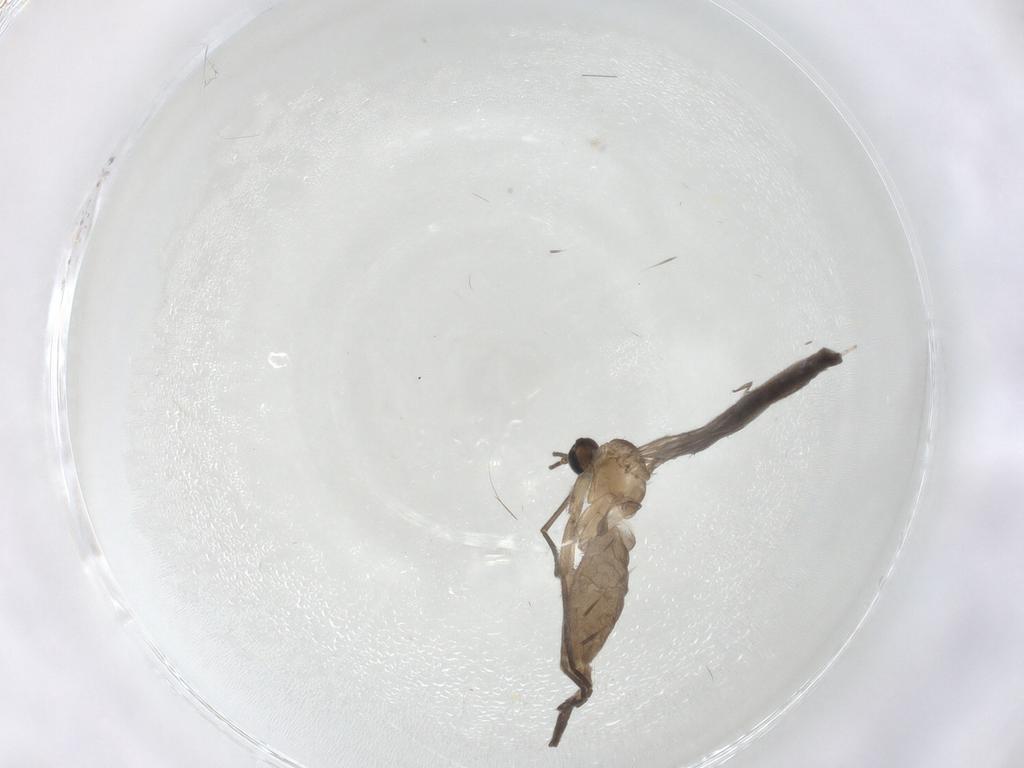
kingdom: Animalia
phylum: Arthropoda
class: Insecta
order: Diptera
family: Sciaridae
